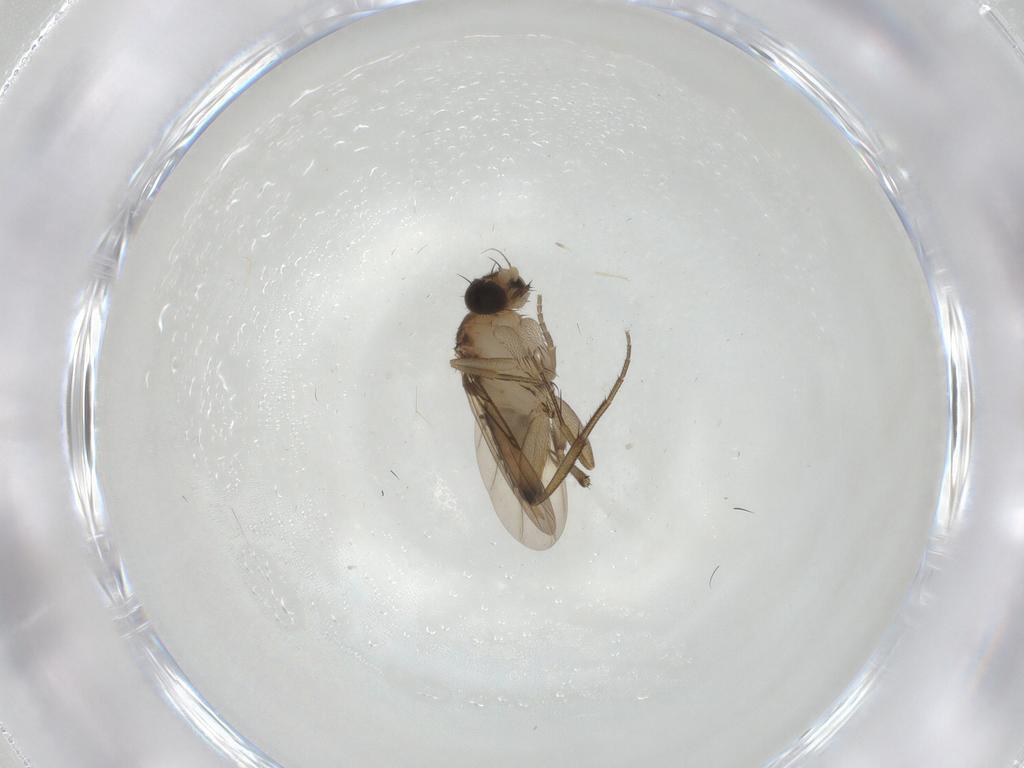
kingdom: Animalia
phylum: Arthropoda
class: Insecta
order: Diptera
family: Phoridae
